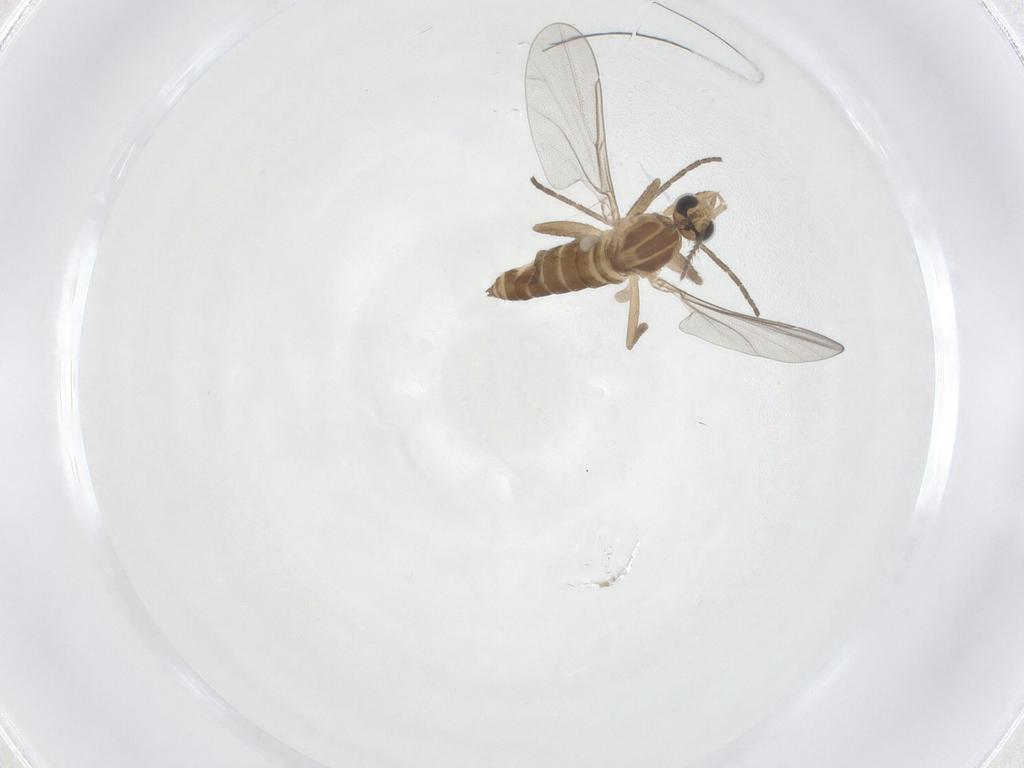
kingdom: Animalia
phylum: Arthropoda
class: Insecta
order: Diptera
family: Cecidomyiidae
